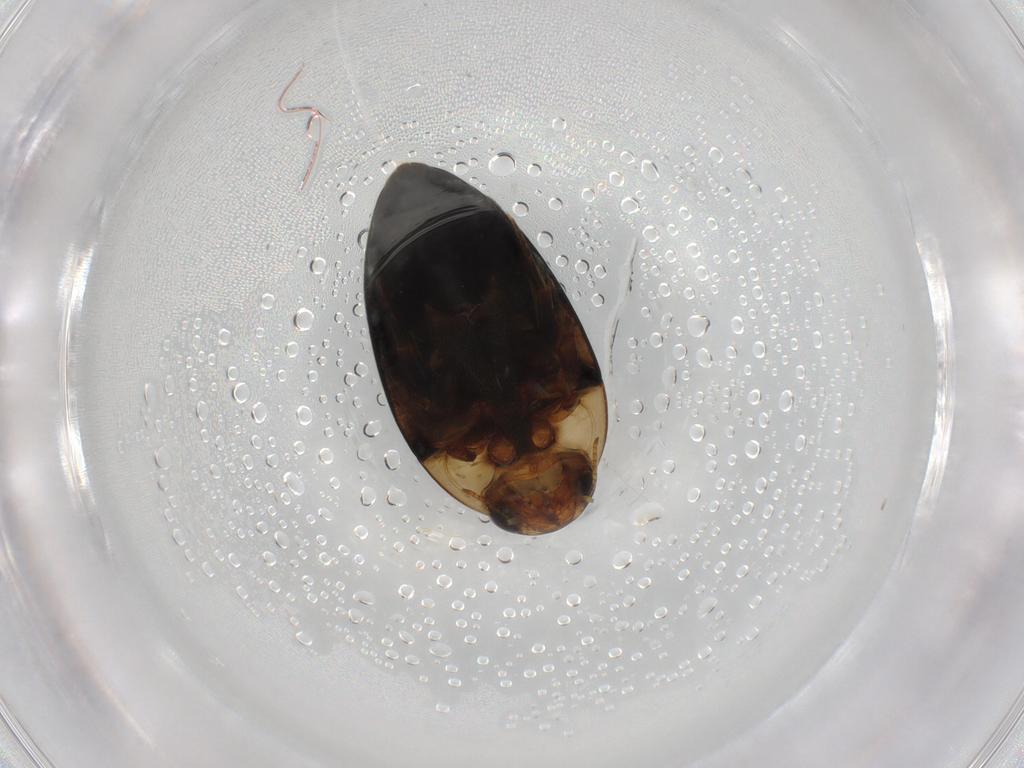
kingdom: Animalia
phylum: Arthropoda
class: Insecta
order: Coleoptera
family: Noteridae
